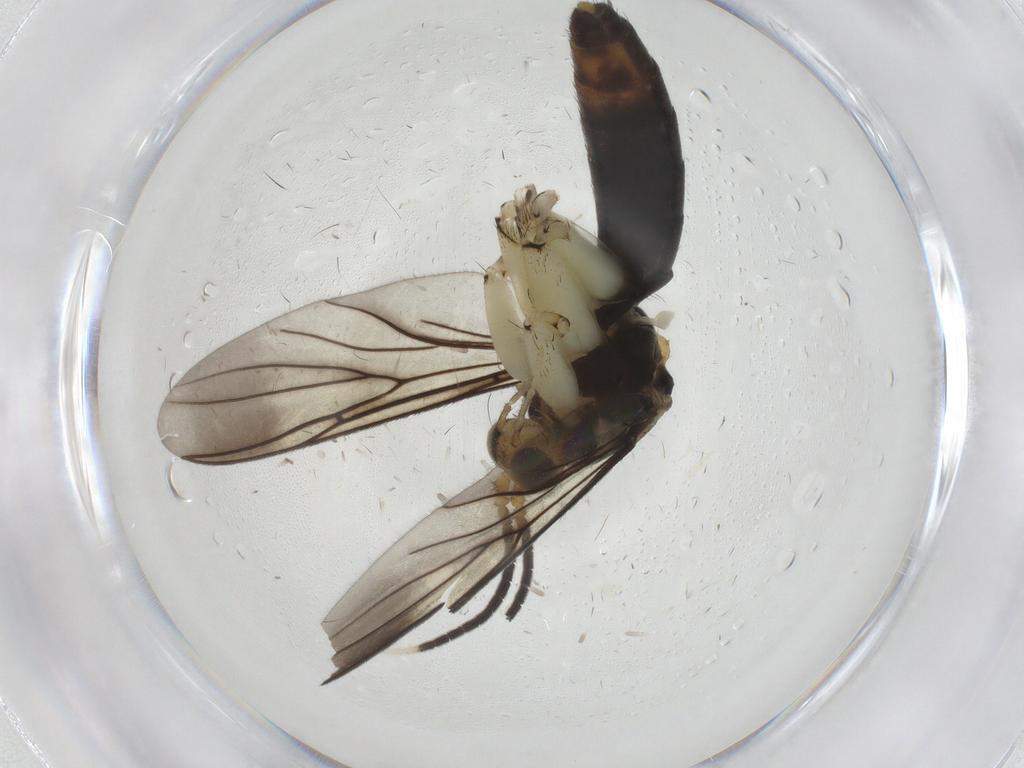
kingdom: Animalia
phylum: Arthropoda
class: Insecta
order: Diptera
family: Mycetophilidae
